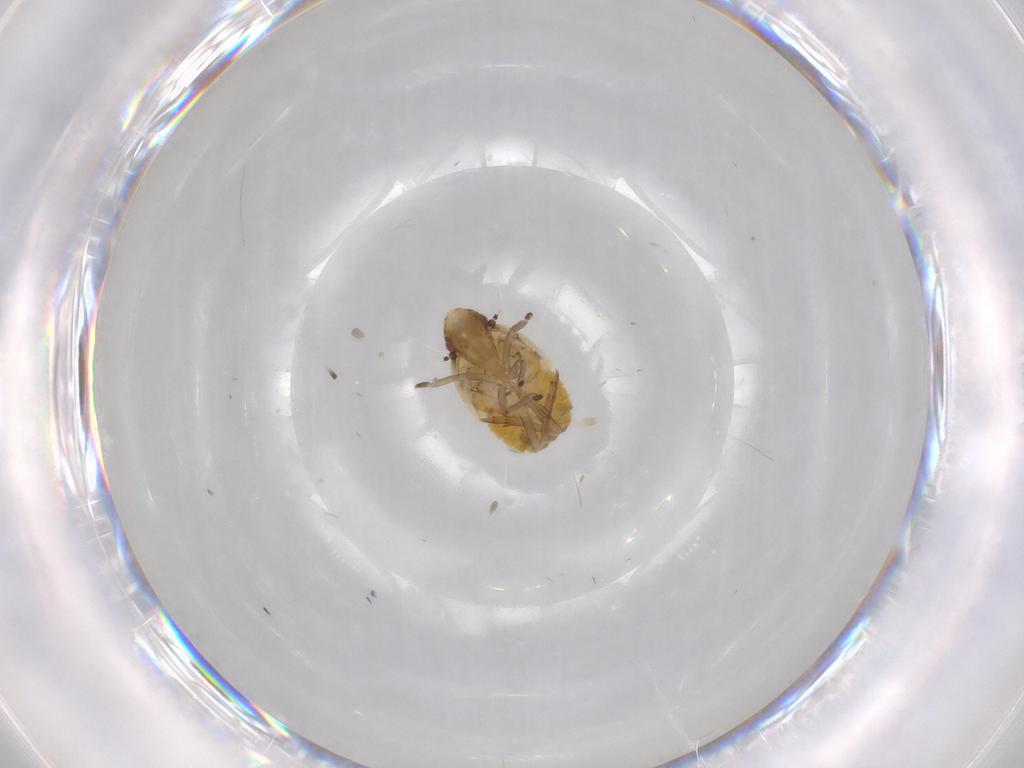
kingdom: Animalia
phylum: Arthropoda
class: Insecta
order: Hemiptera
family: Flatidae
